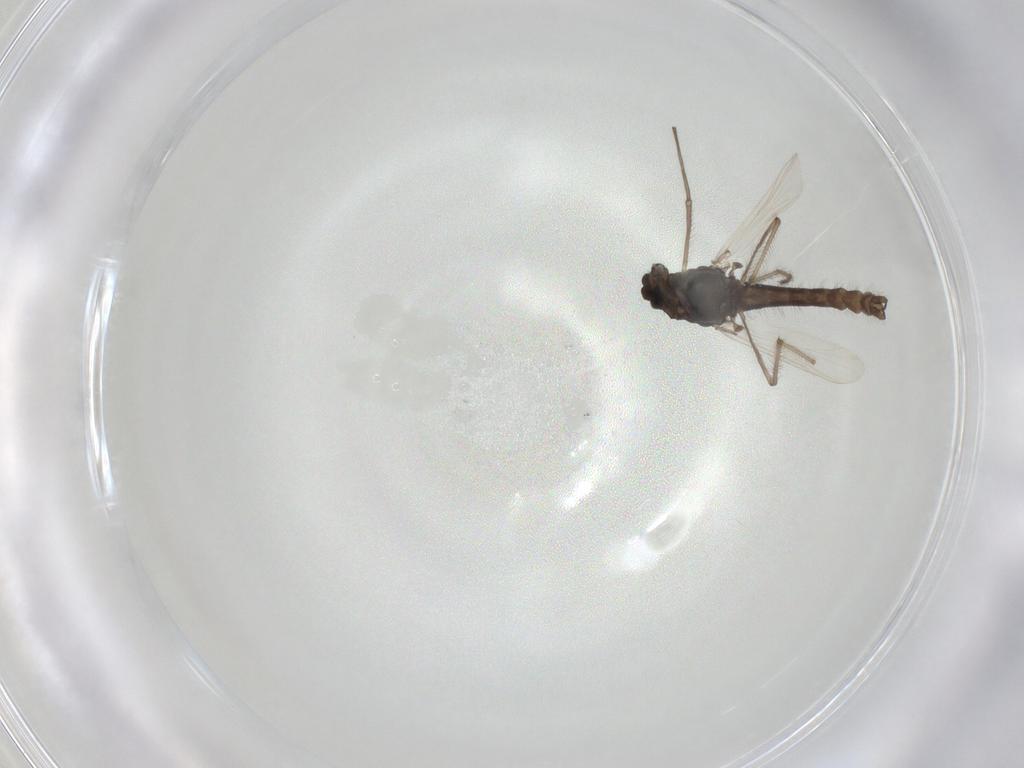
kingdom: Animalia
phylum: Arthropoda
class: Insecta
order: Diptera
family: Chironomidae
